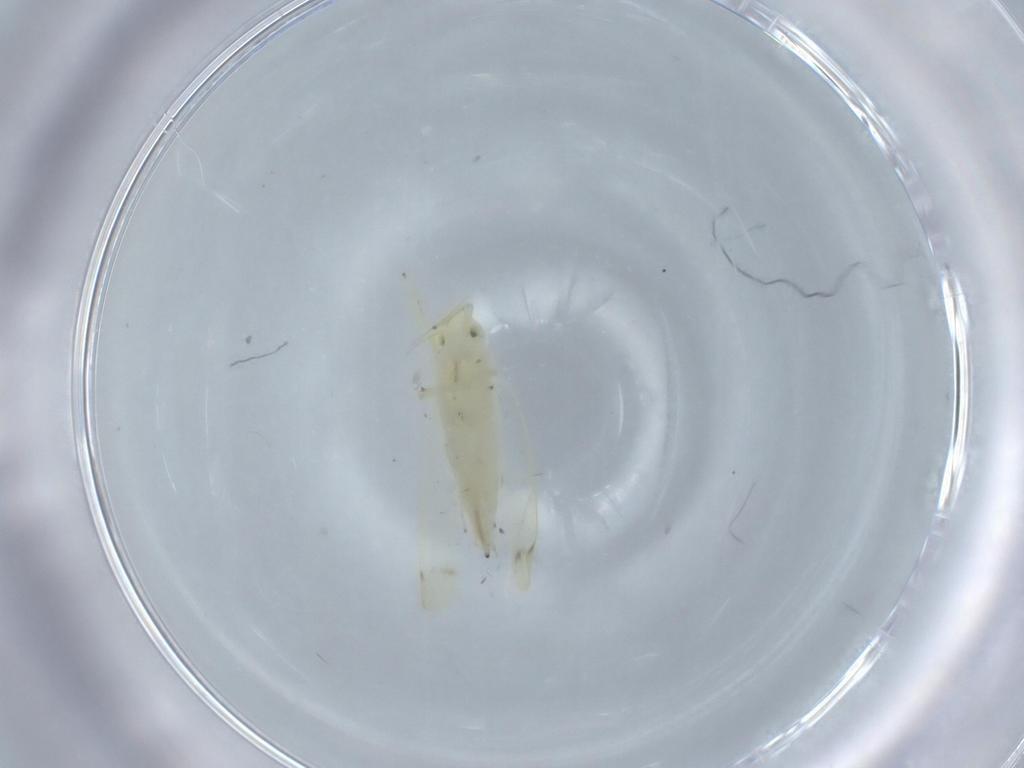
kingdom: Animalia
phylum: Arthropoda
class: Insecta
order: Hemiptera
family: Cicadellidae
